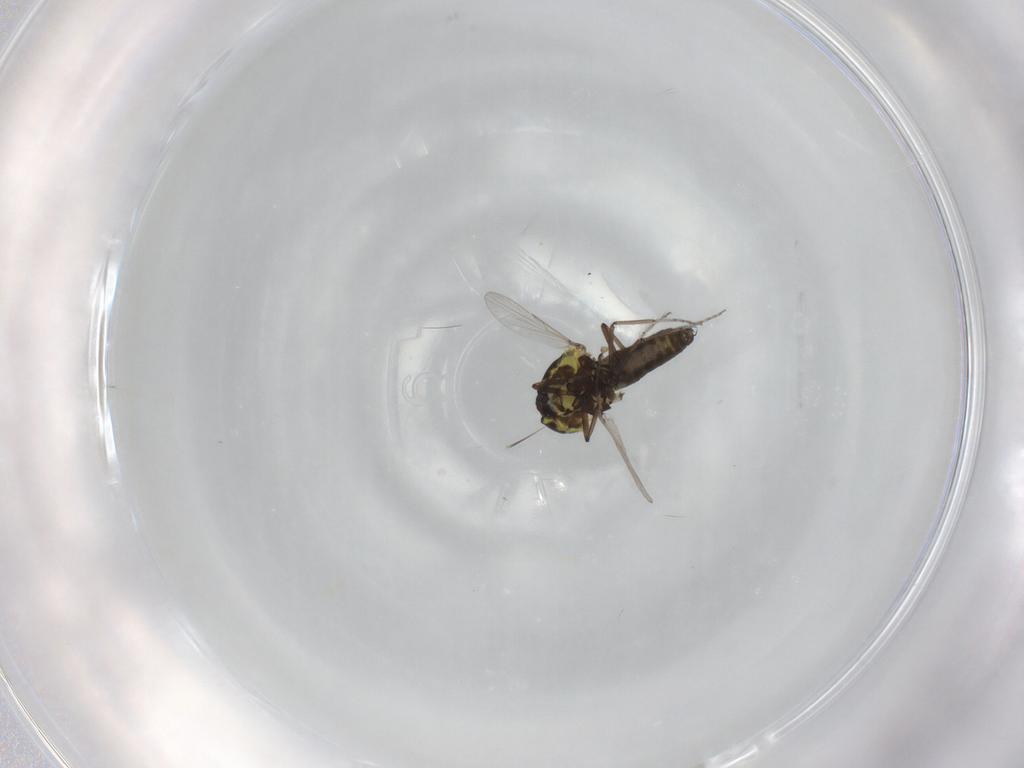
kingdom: Animalia
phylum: Arthropoda
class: Insecta
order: Diptera
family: Ceratopogonidae
